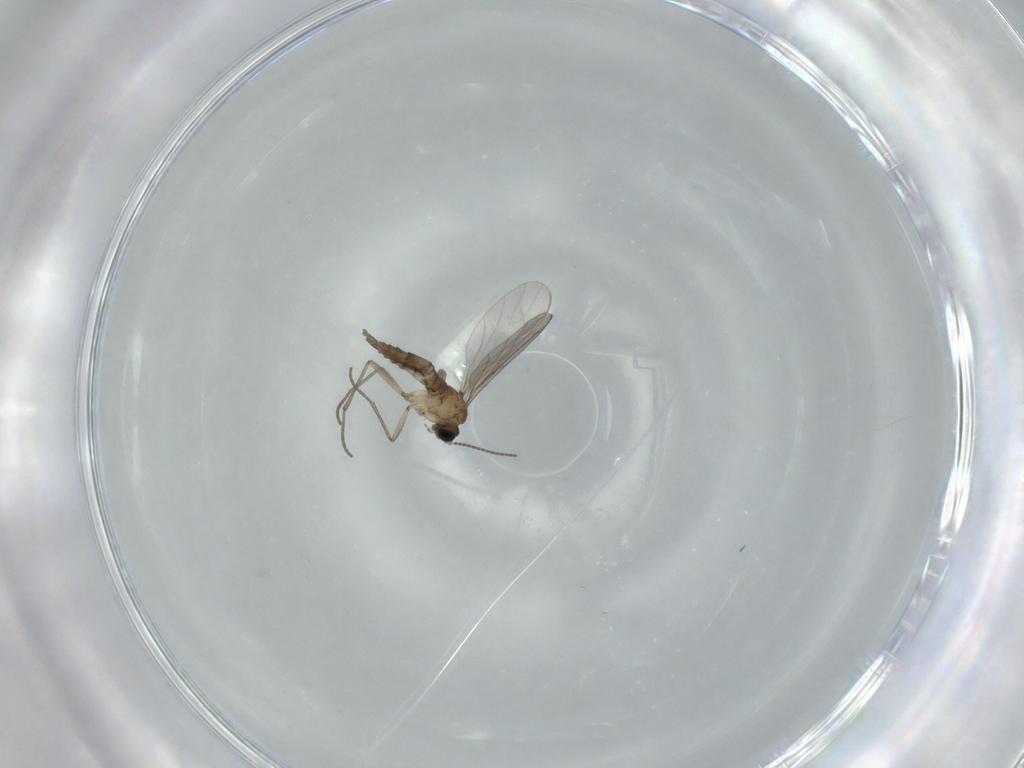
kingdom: Animalia
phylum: Arthropoda
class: Insecta
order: Diptera
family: Sciaridae
